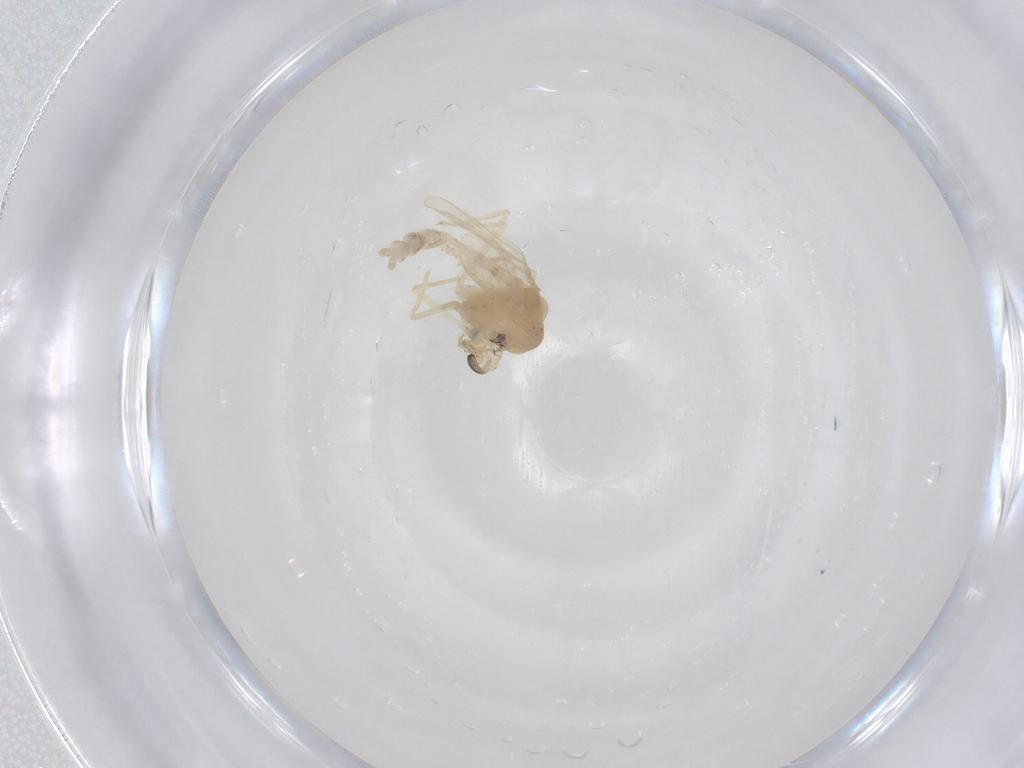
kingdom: Animalia
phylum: Arthropoda
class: Insecta
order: Diptera
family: Chironomidae
